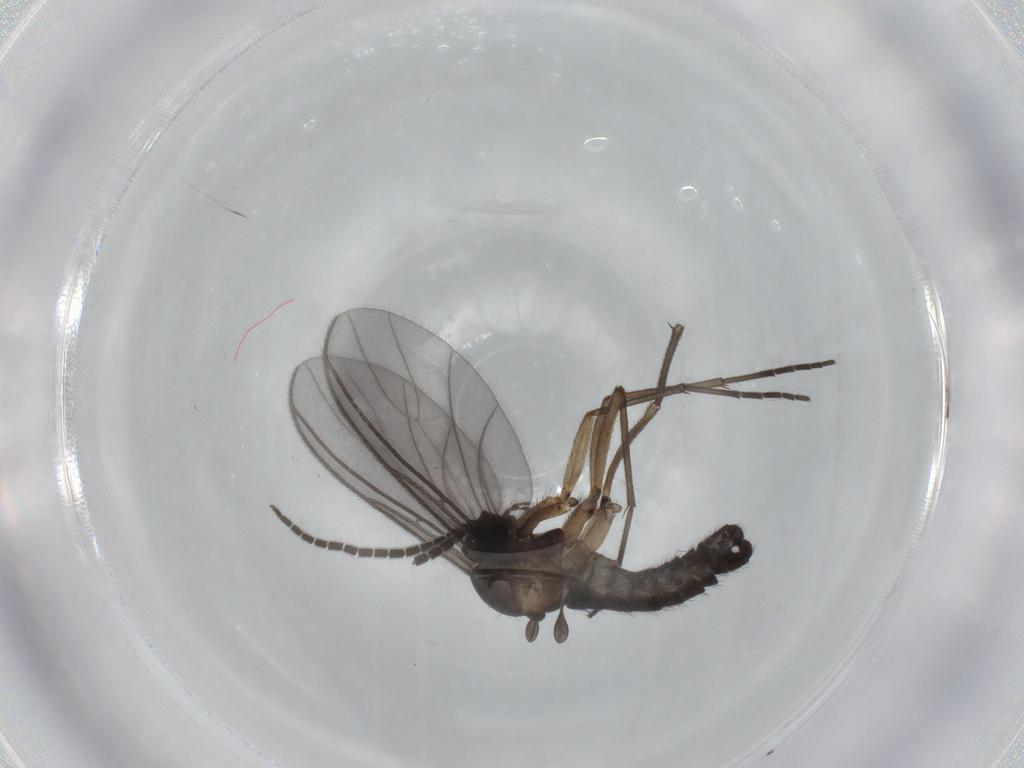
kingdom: Animalia
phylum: Arthropoda
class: Insecta
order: Diptera
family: Sciaridae
